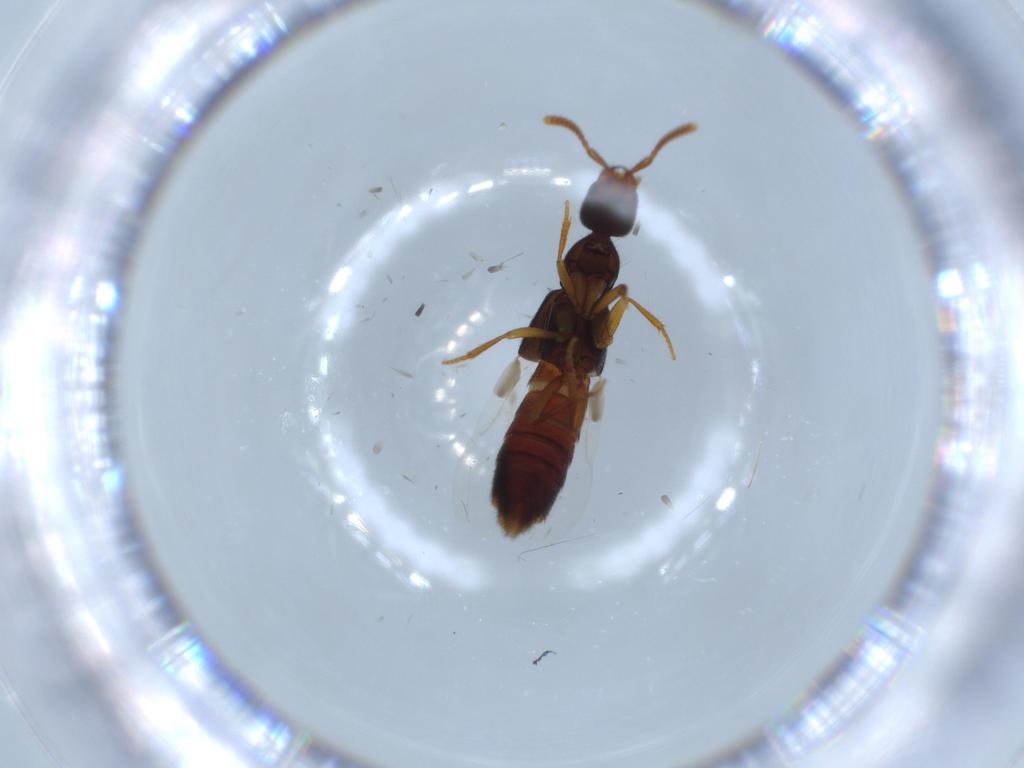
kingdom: Animalia
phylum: Arthropoda
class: Insecta
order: Coleoptera
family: Staphylinidae
